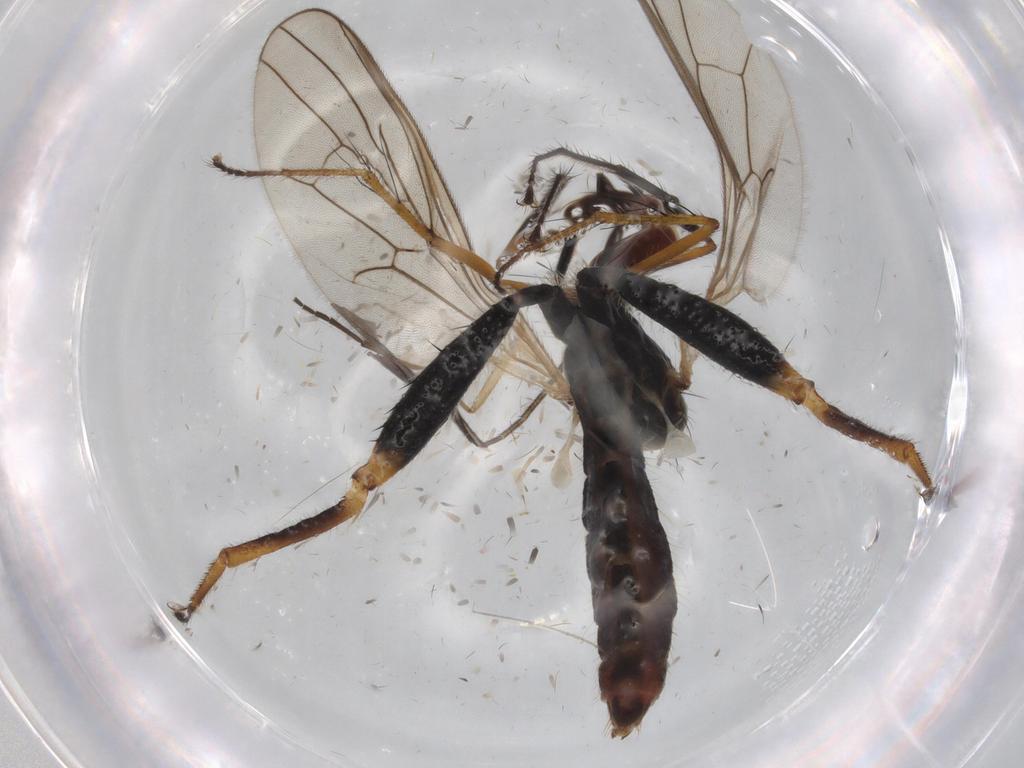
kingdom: Animalia
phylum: Arthropoda
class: Insecta
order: Diptera
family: Hybotidae
